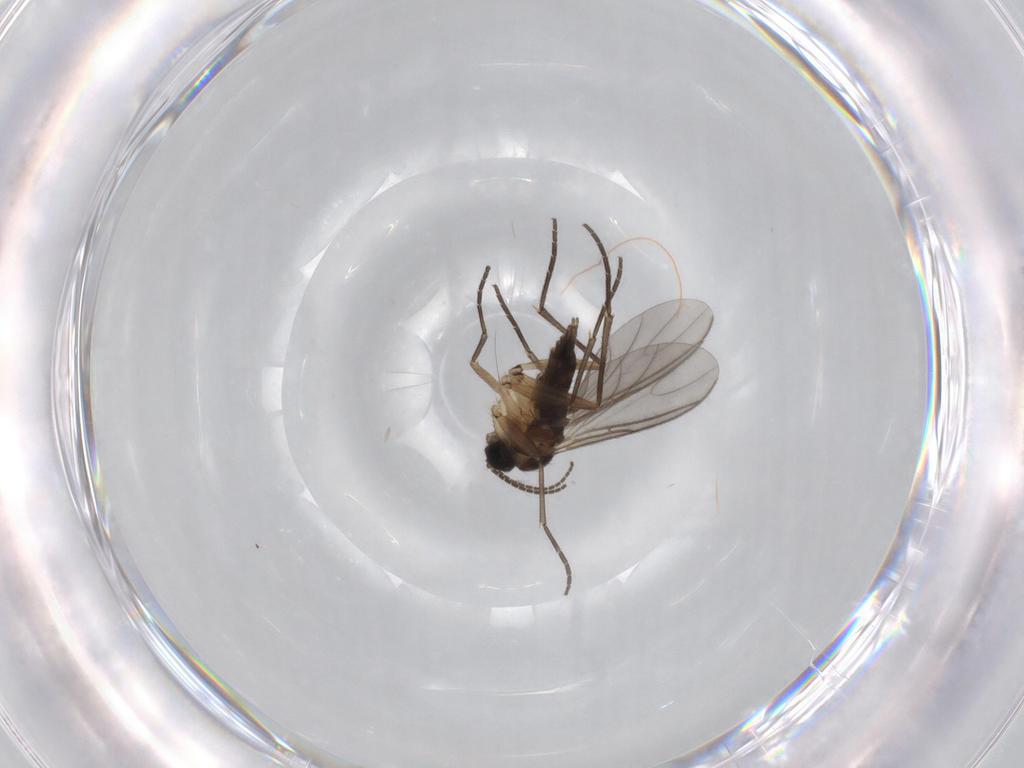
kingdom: Animalia
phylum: Arthropoda
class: Insecta
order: Diptera
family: Sciaridae
